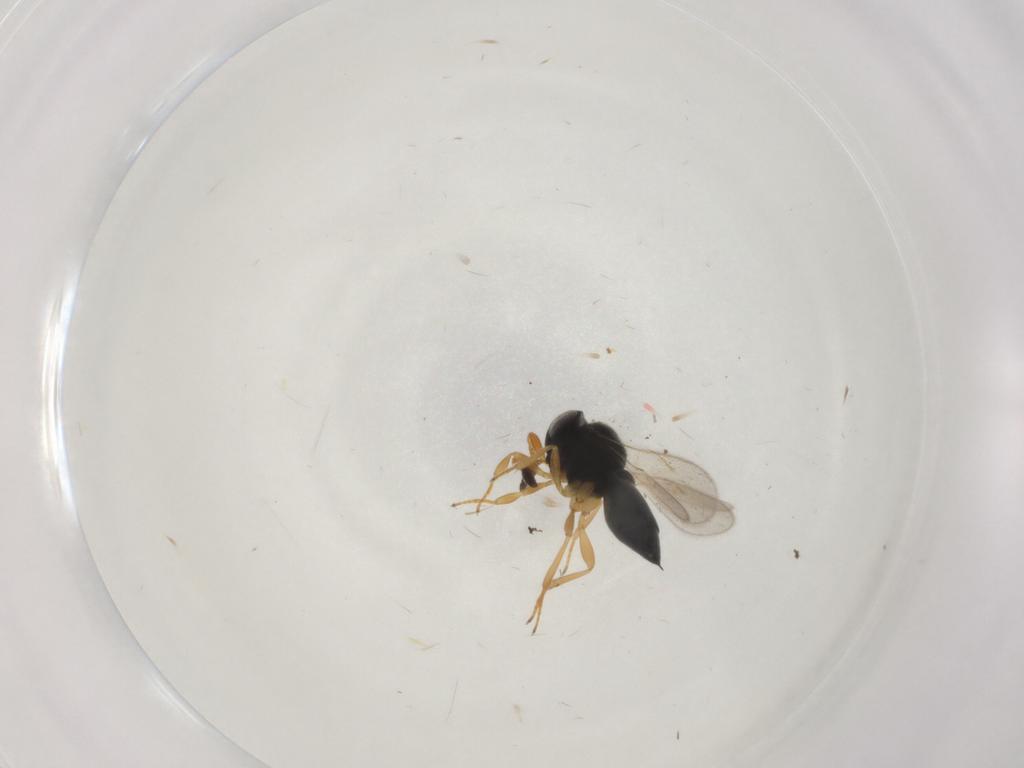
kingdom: Animalia
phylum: Arthropoda
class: Insecta
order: Hymenoptera
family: Scelionidae
